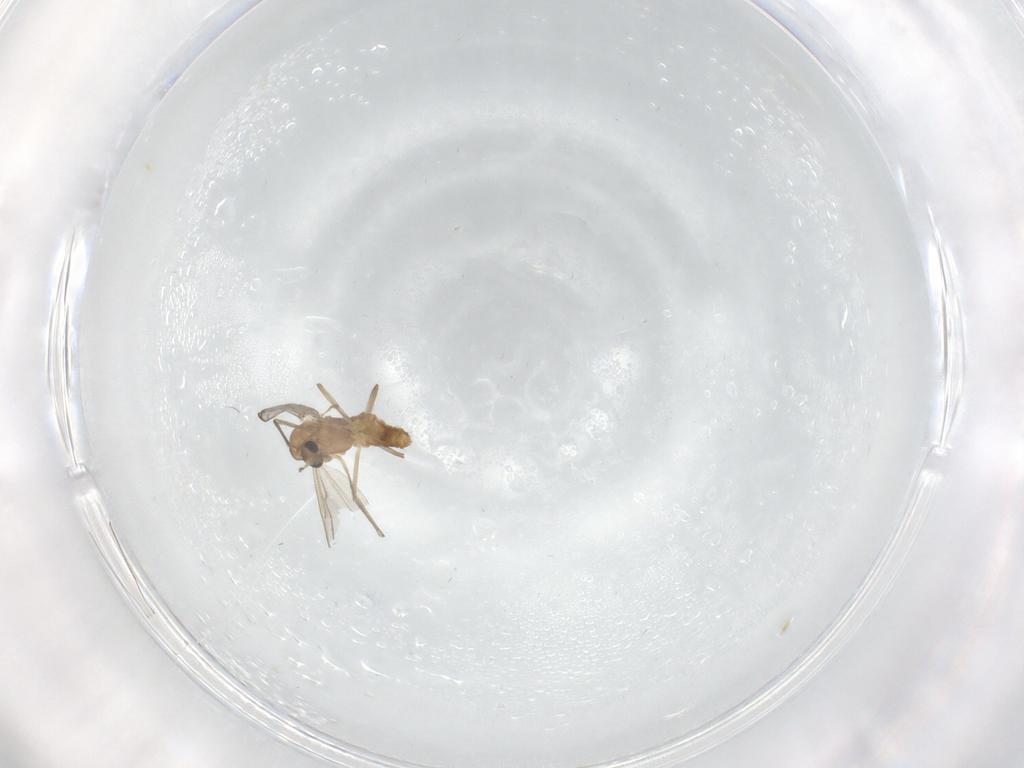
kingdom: Animalia
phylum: Arthropoda
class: Insecta
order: Diptera
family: Chironomidae
